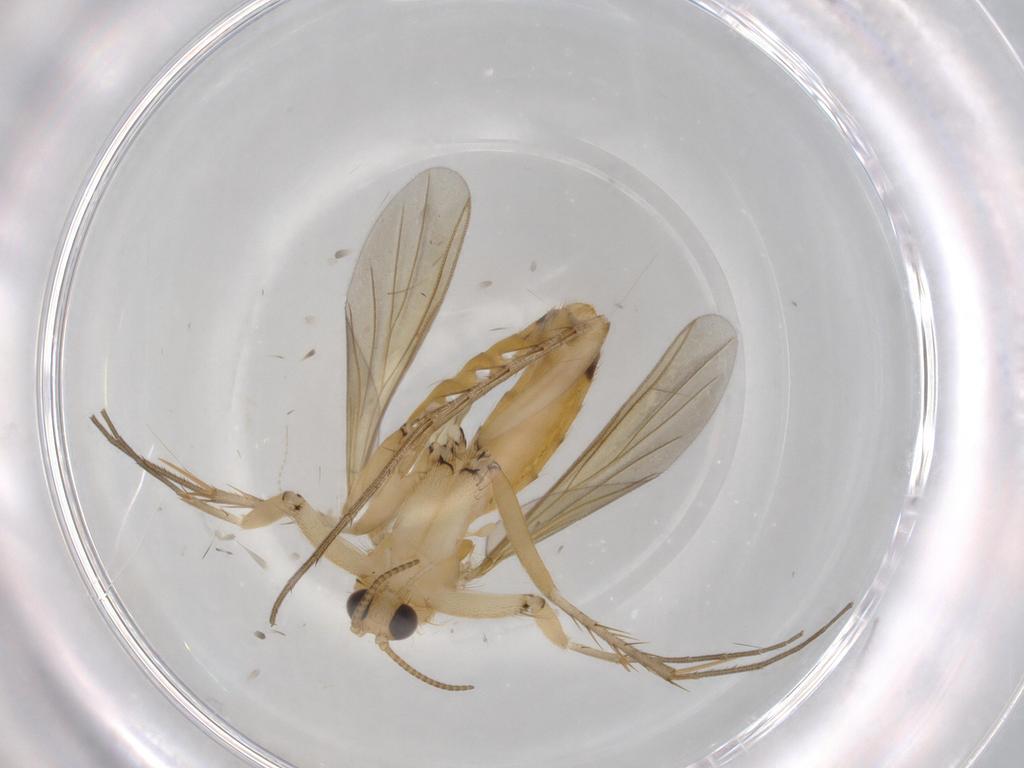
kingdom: Animalia
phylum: Arthropoda
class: Insecta
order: Diptera
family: Mycetophilidae
